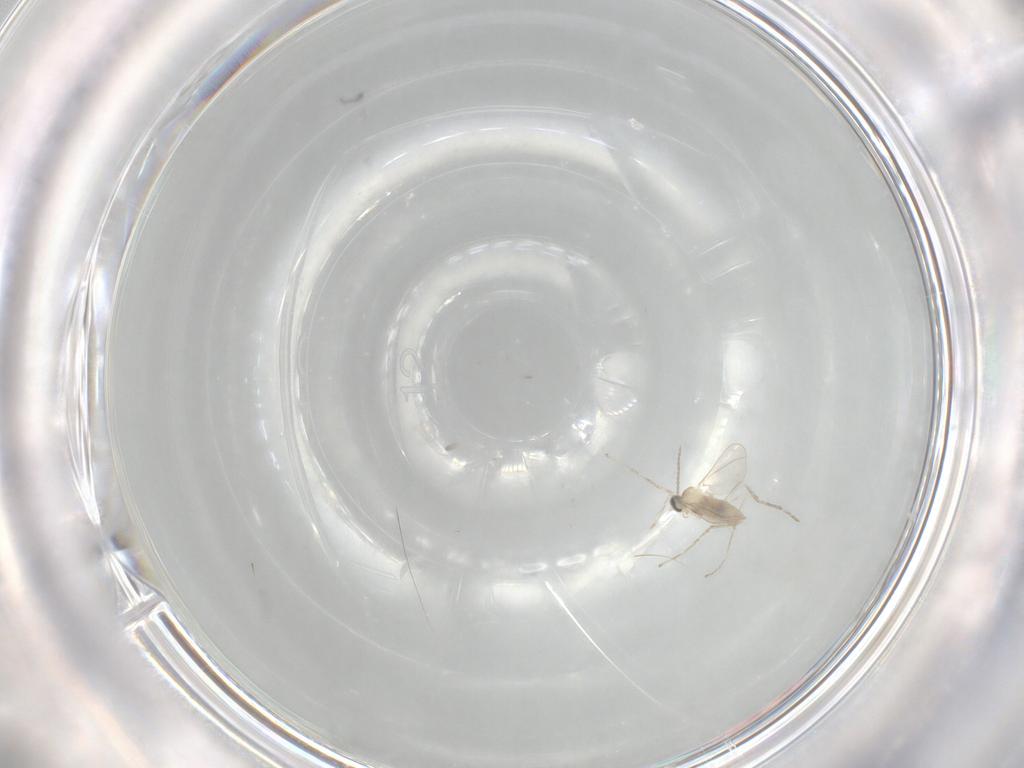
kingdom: Animalia
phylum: Arthropoda
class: Insecta
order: Diptera
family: Cecidomyiidae
